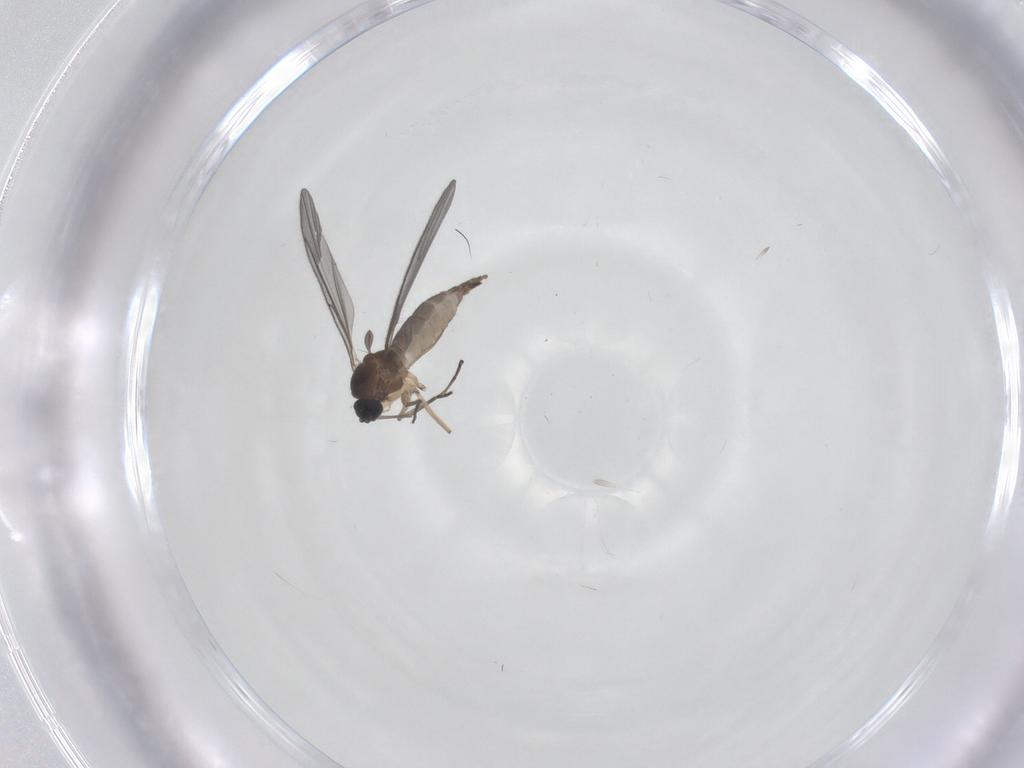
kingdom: Animalia
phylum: Arthropoda
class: Insecta
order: Diptera
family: Sciaridae
